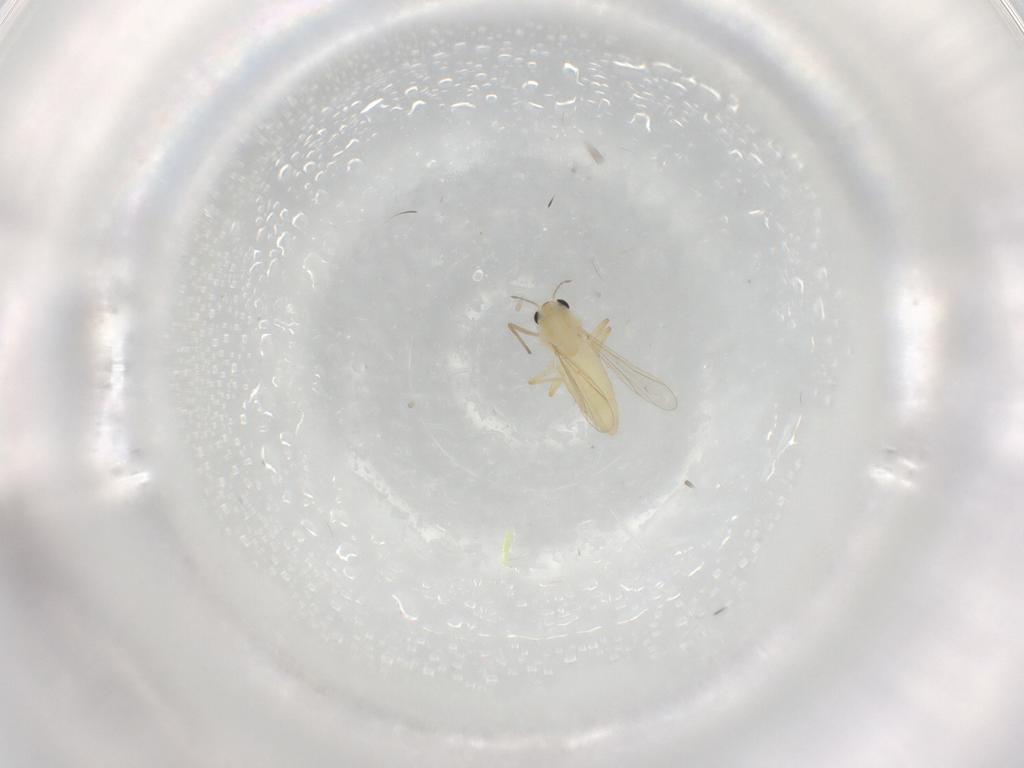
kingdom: Animalia
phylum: Arthropoda
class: Insecta
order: Diptera
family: Chironomidae
